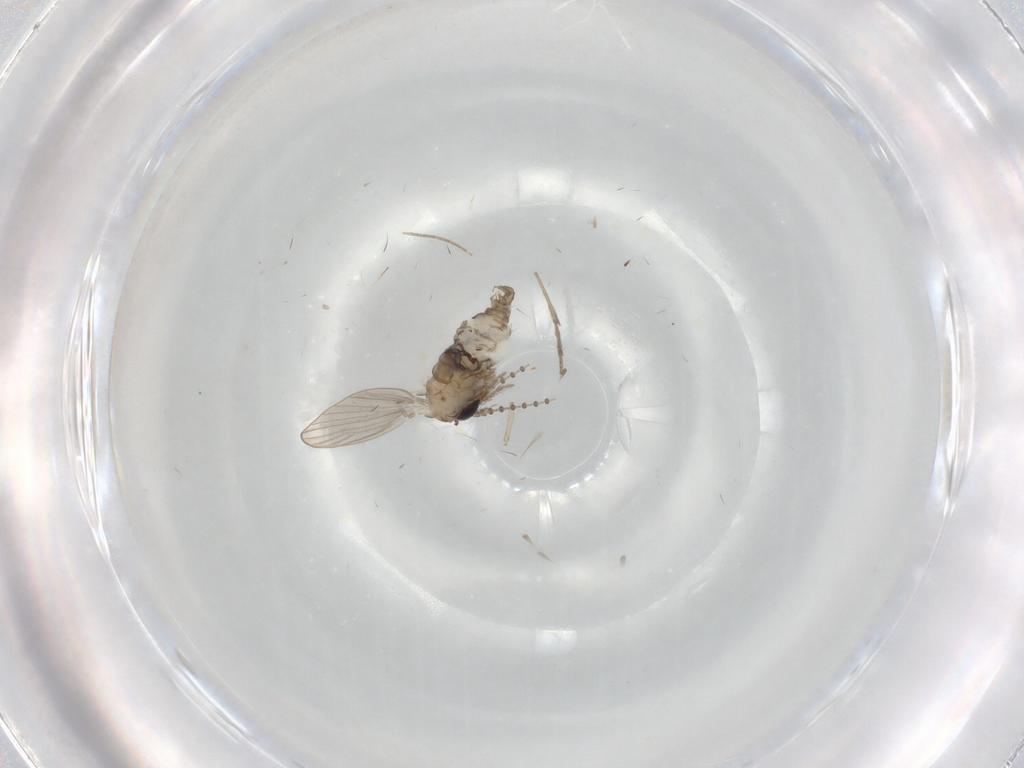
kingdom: Animalia
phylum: Arthropoda
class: Insecta
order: Diptera
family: Psychodidae
